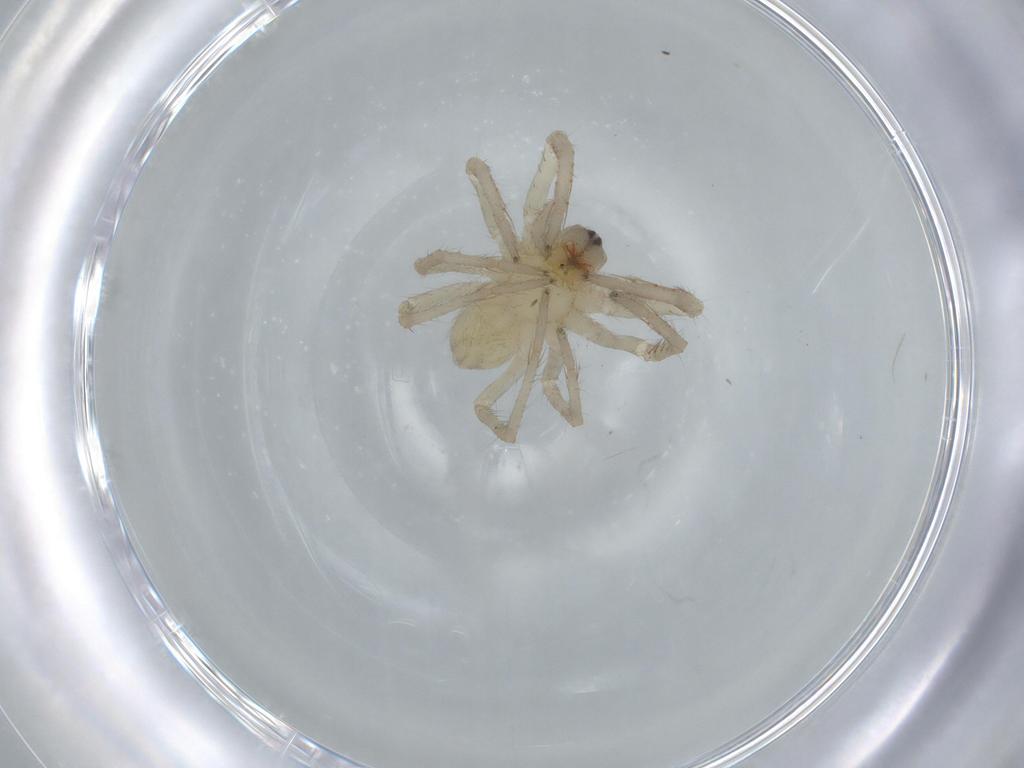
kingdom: Animalia
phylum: Arthropoda
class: Arachnida
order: Araneae
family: Ctenidae
